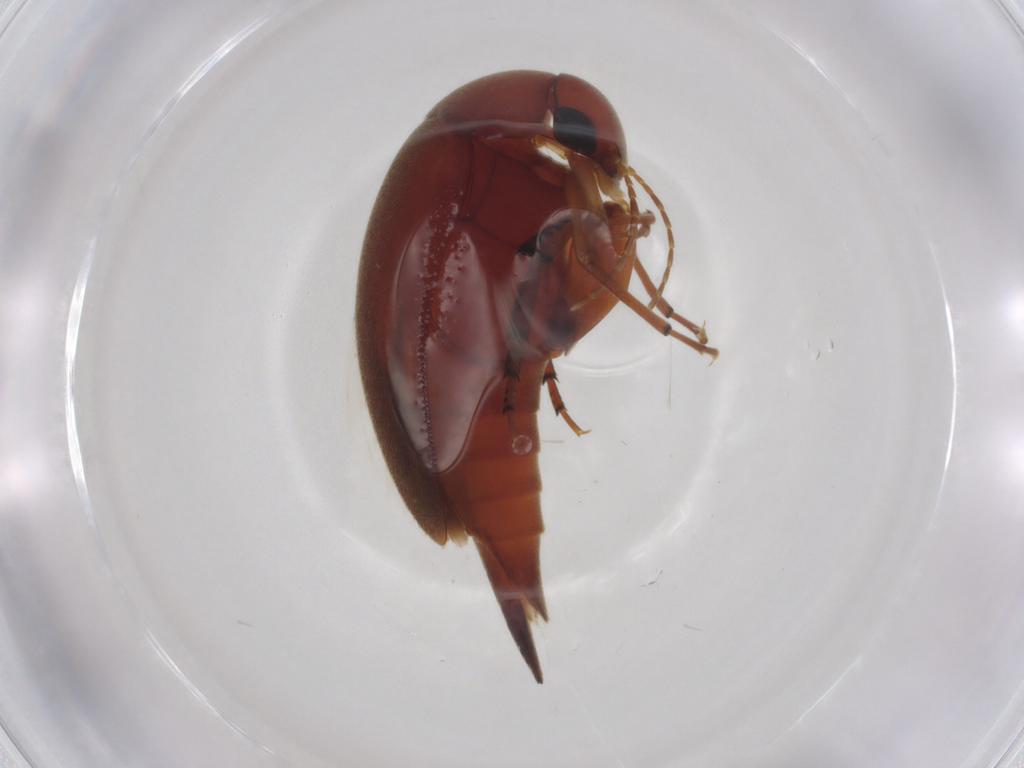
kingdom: Animalia
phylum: Arthropoda
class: Insecta
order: Coleoptera
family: Mordellidae
